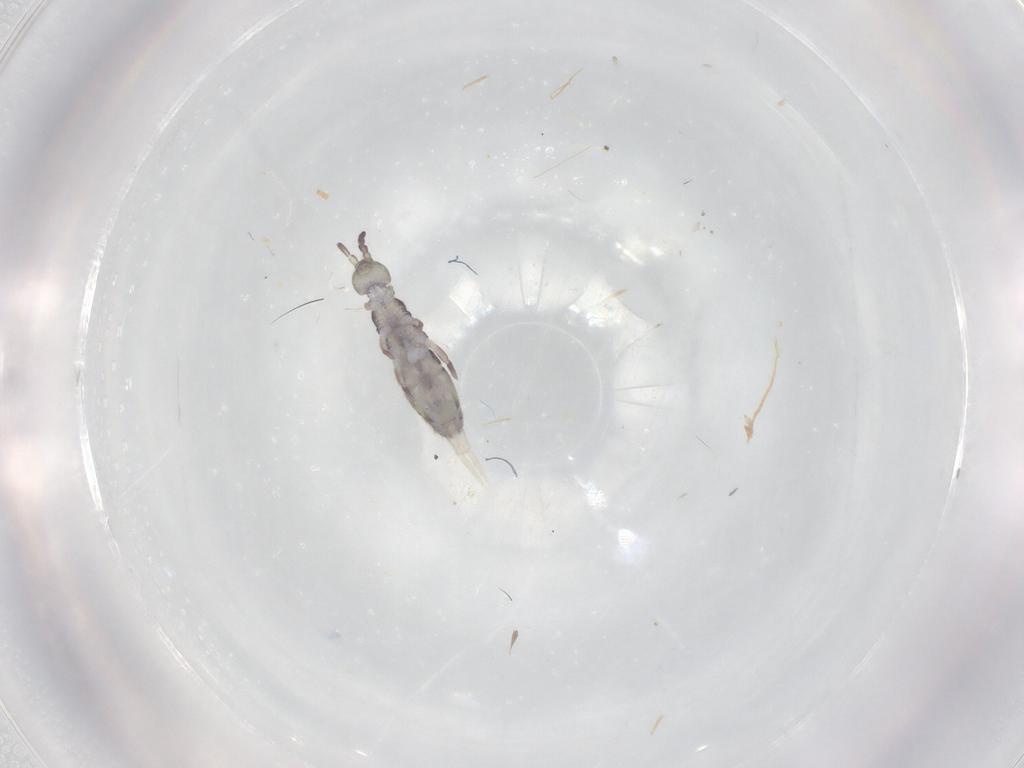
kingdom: Animalia
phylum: Arthropoda
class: Collembola
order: Entomobryomorpha
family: Isotomidae
